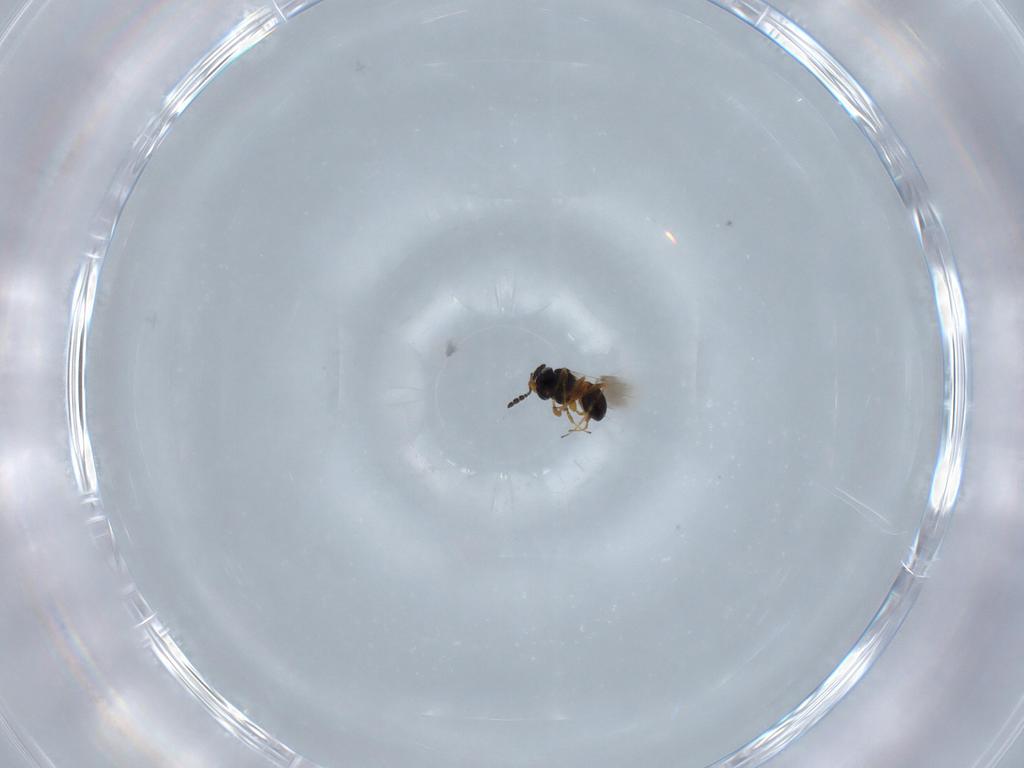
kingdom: Animalia
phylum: Arthropoda
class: Insecta
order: Hymenoptera
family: Platygastridae
